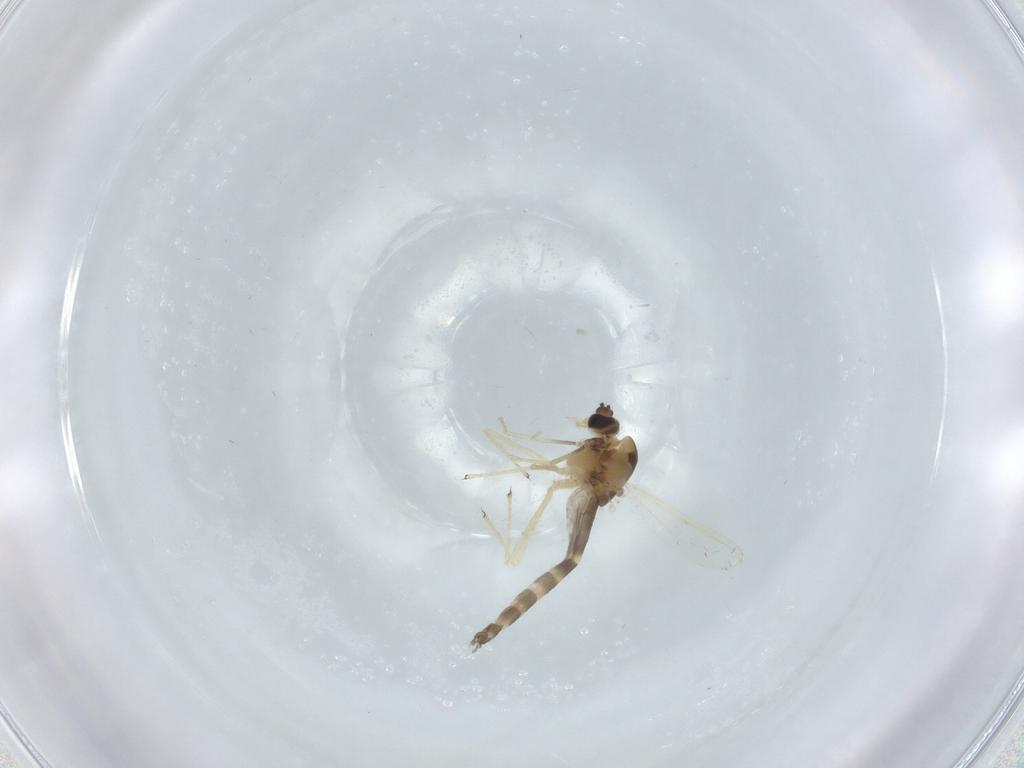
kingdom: Animalia
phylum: Arthropoda
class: Insecta
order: Diptera
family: Chironomidae
